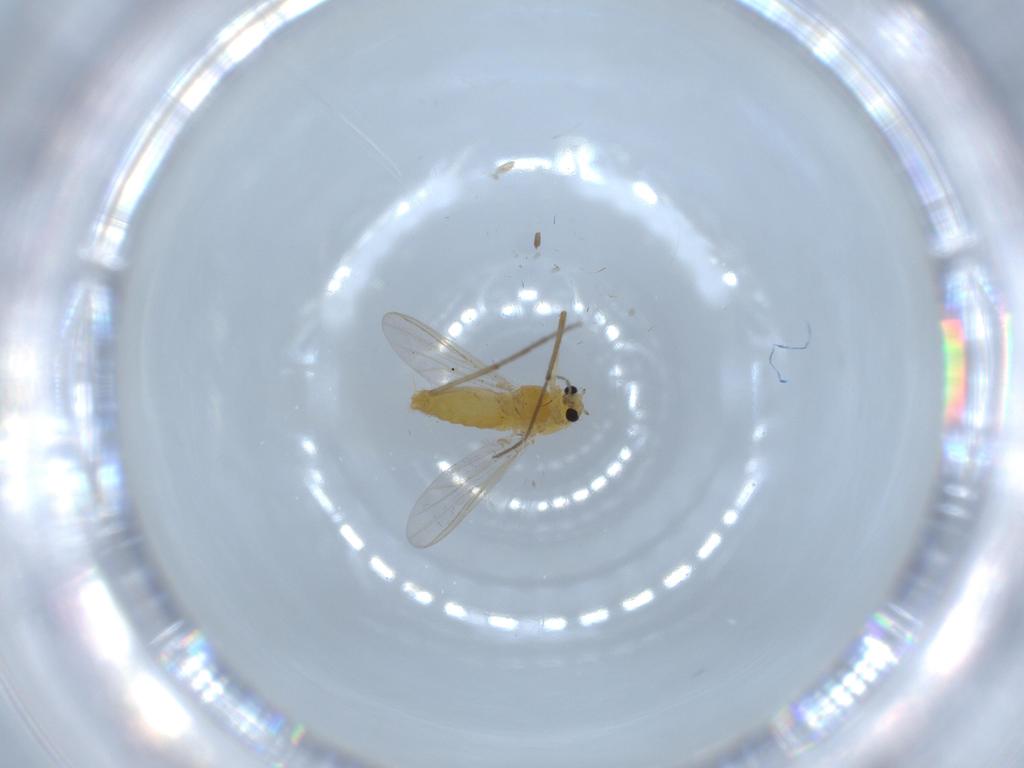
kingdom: Animalia
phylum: Arthropoda
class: Insecta
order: Diptera
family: Chironomidae
